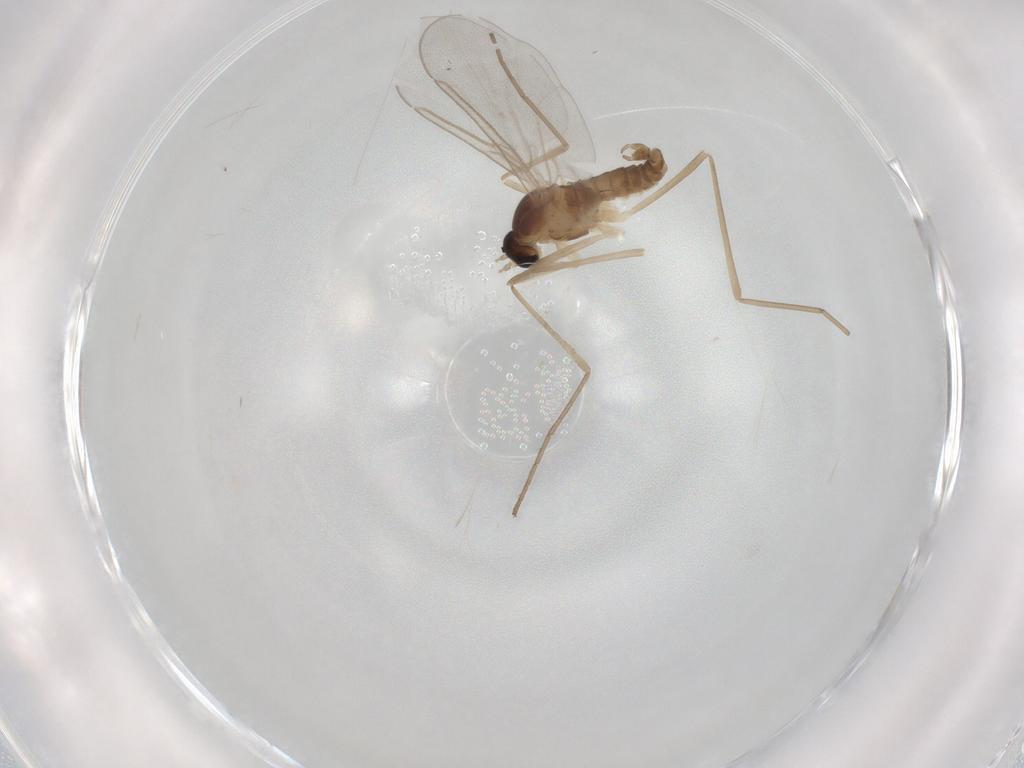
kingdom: Animalia
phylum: Arthropoda
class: Insecta
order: Diptera
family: Cecidomyiidae
